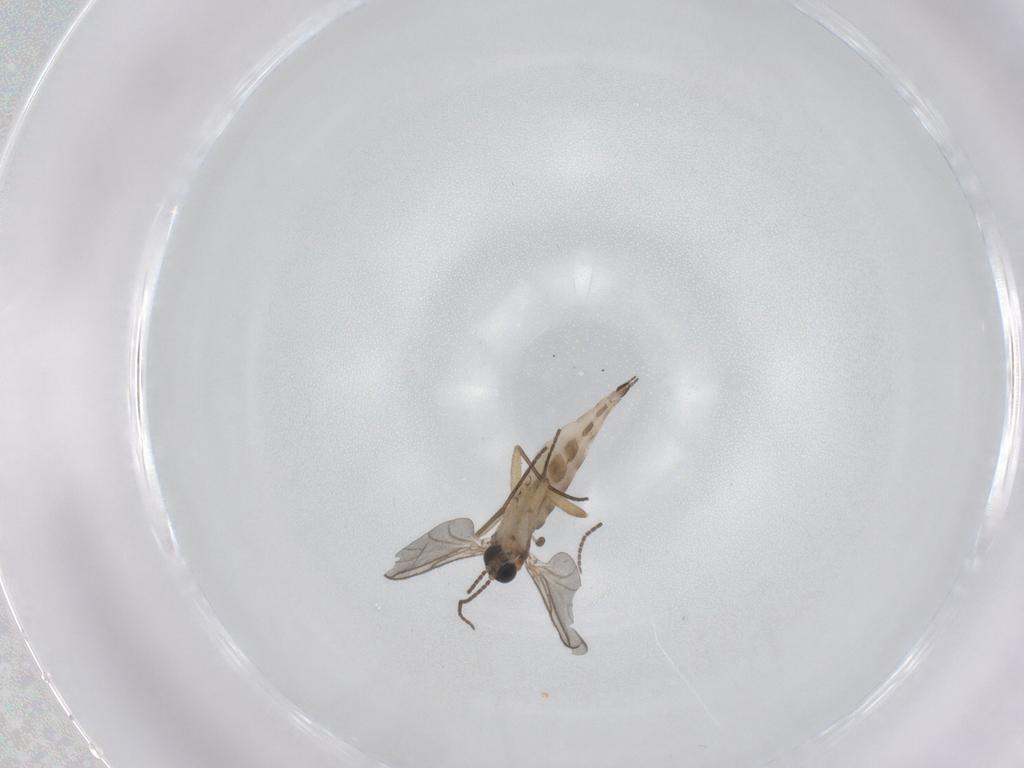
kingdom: Animalia
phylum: Arthropoda
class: Insecta
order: Diptera
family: Sciaridae
